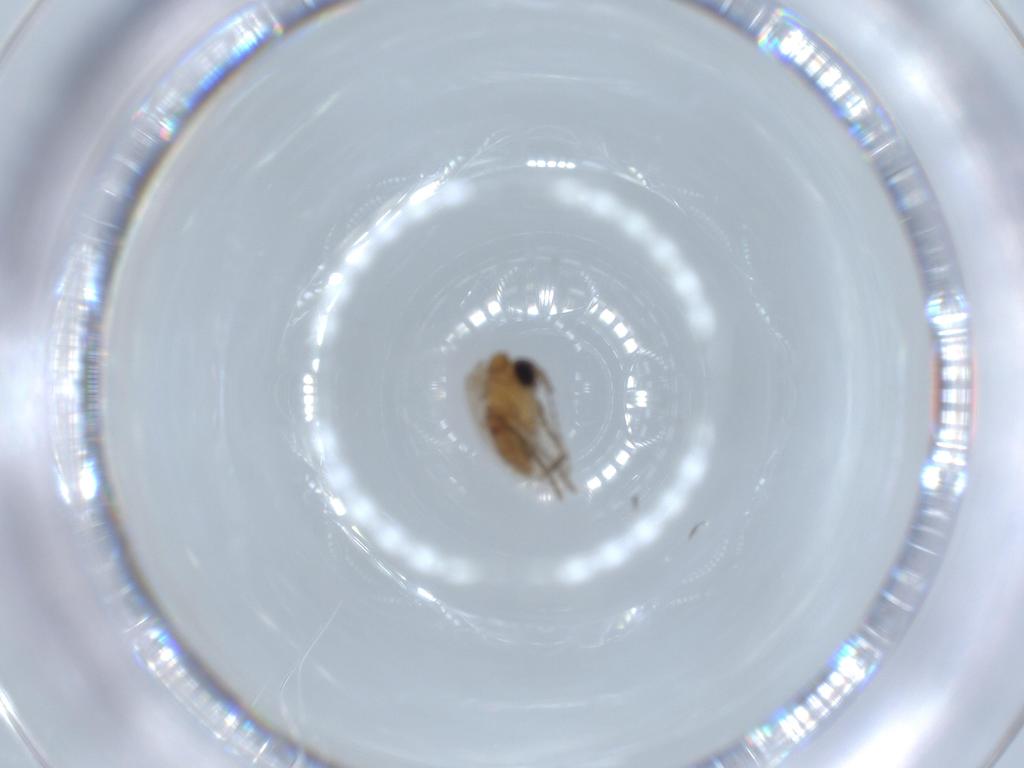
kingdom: Animalia
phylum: Arthropoda
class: Insecta
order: Diptera
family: Psychodidae
